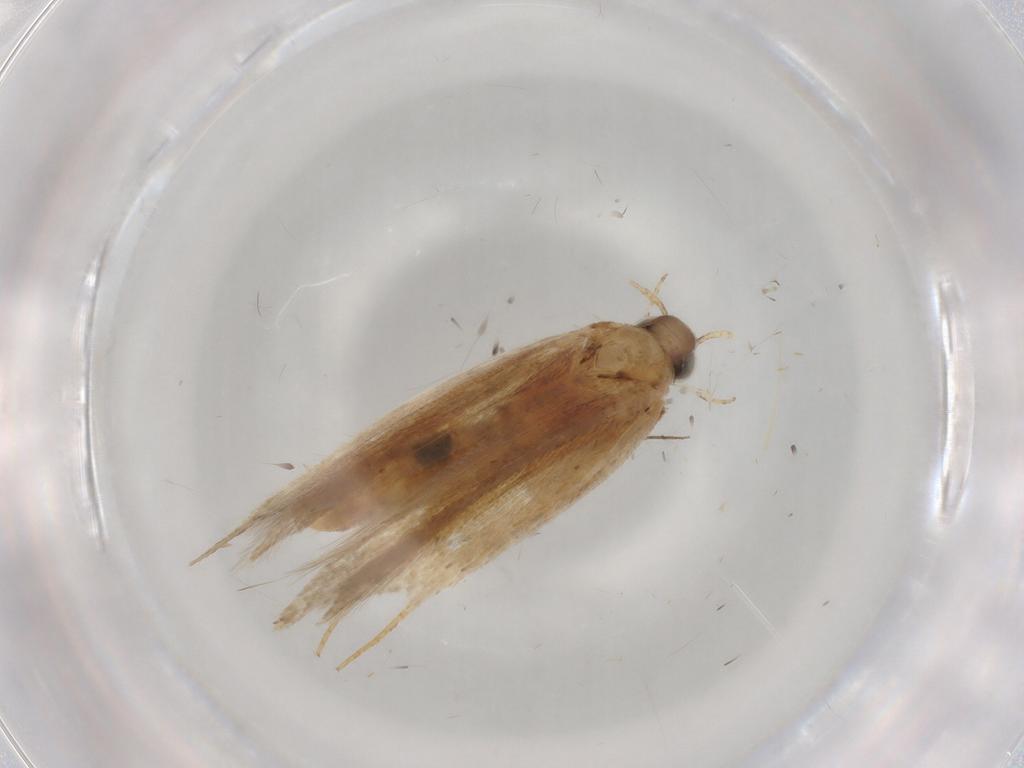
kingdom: Animalia
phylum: Arthropoda
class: Insecta
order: Lepidoptera
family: Gelechiidae
